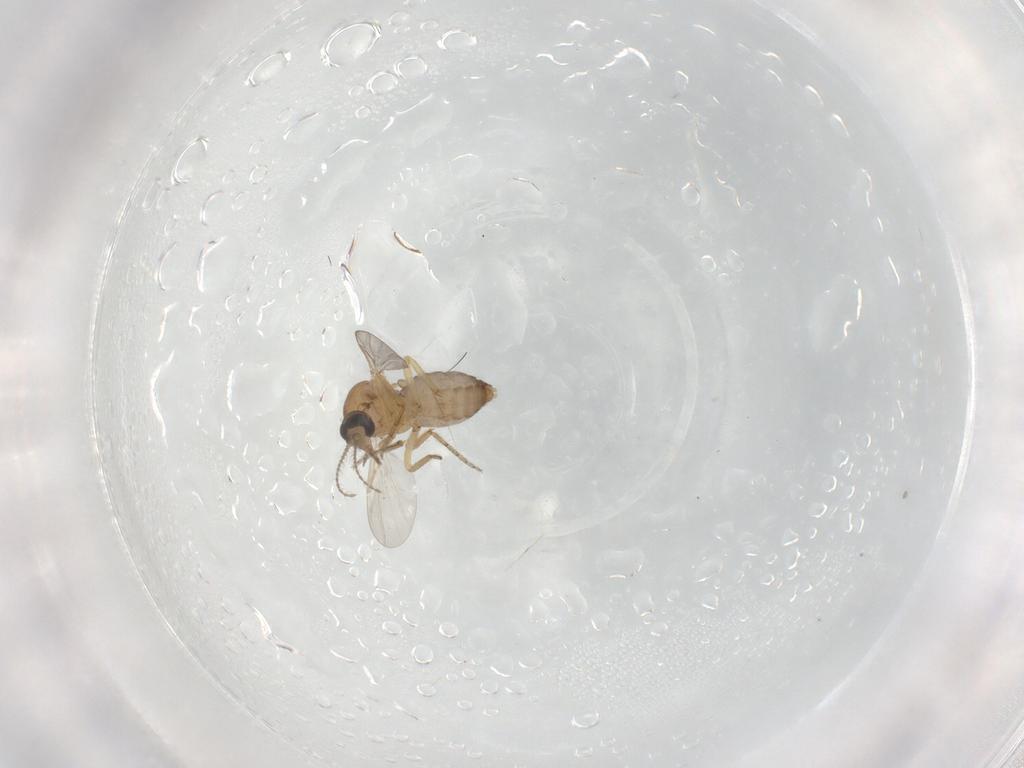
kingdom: Animalia
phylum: Arthropoda
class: Insecta
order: Diptera
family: Ceratopogonidae
